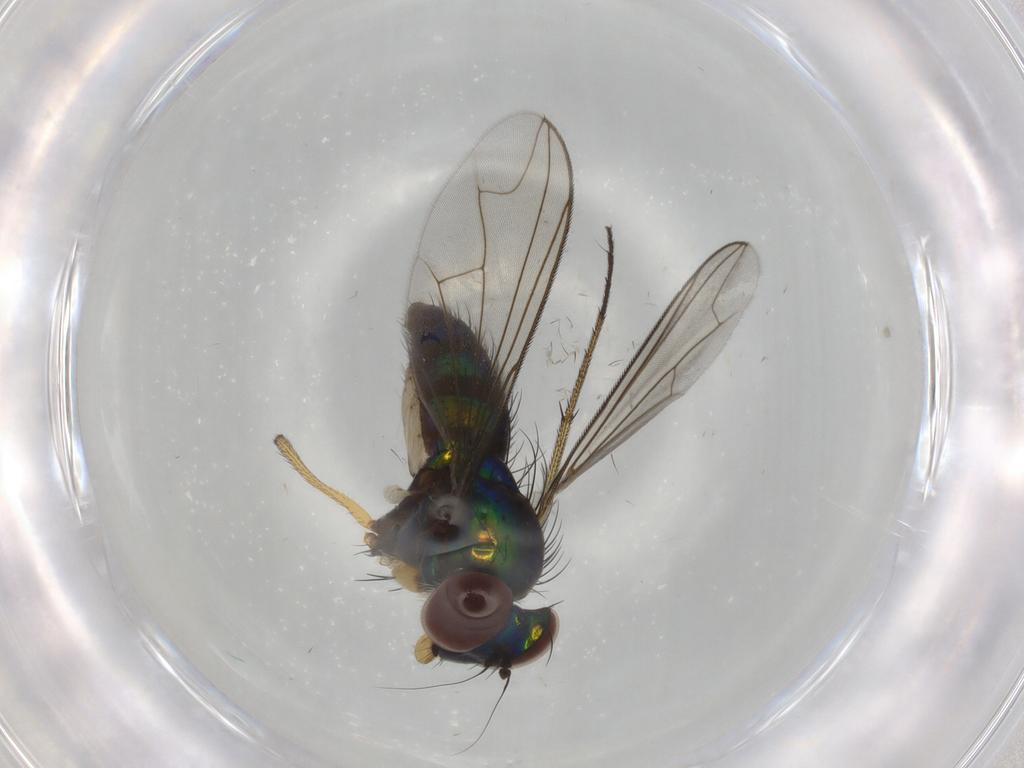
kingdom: Animalia
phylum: Arthropoda
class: Insecta
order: Diptera
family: Dolichopodidae
